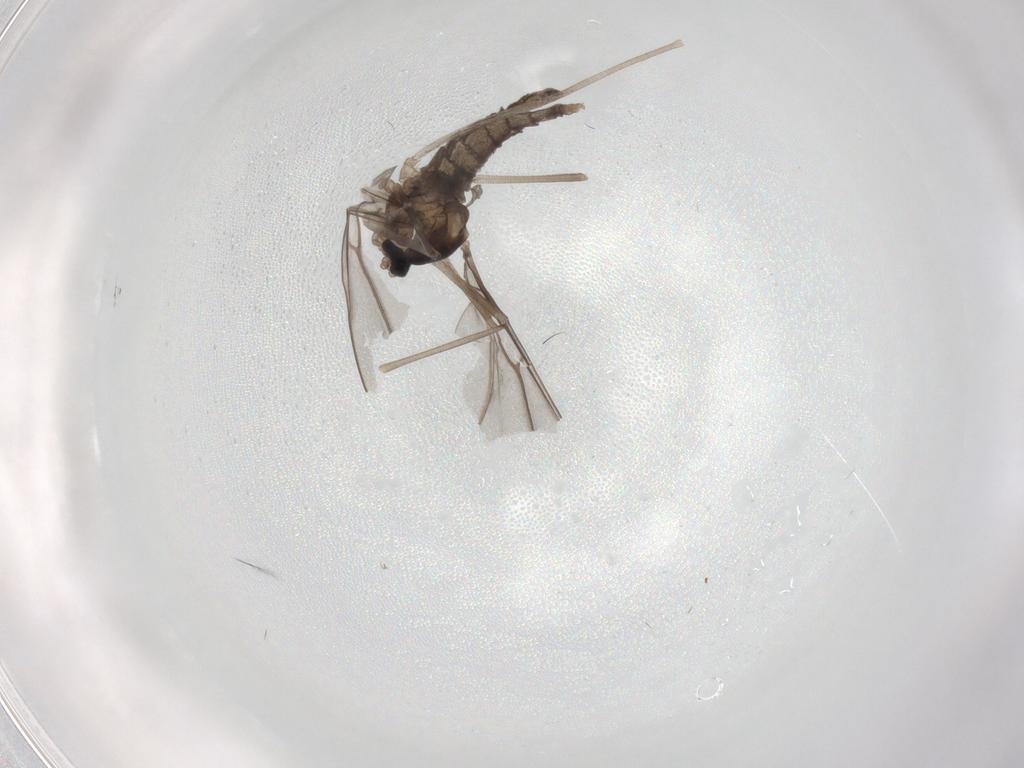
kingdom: Animalia
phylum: Arthropoda
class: Insecta
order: Diptera
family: Cecidomyiidae
